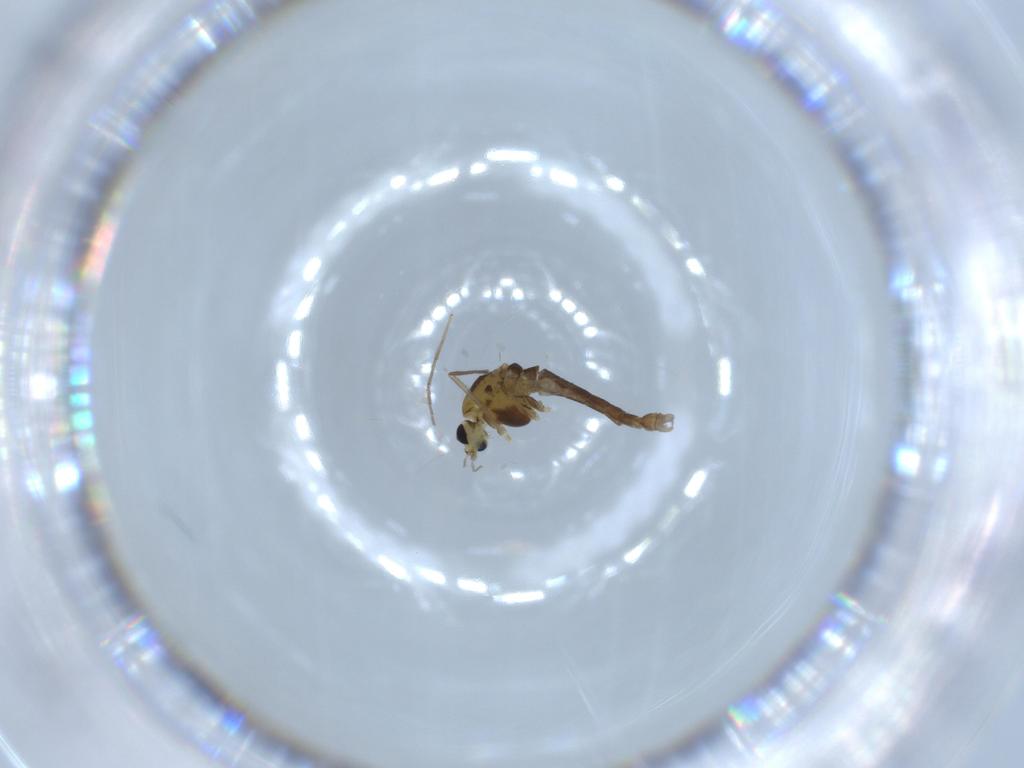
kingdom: Animalia
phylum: Arthropoda
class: Insecta
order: Diptera
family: Chironomidae
